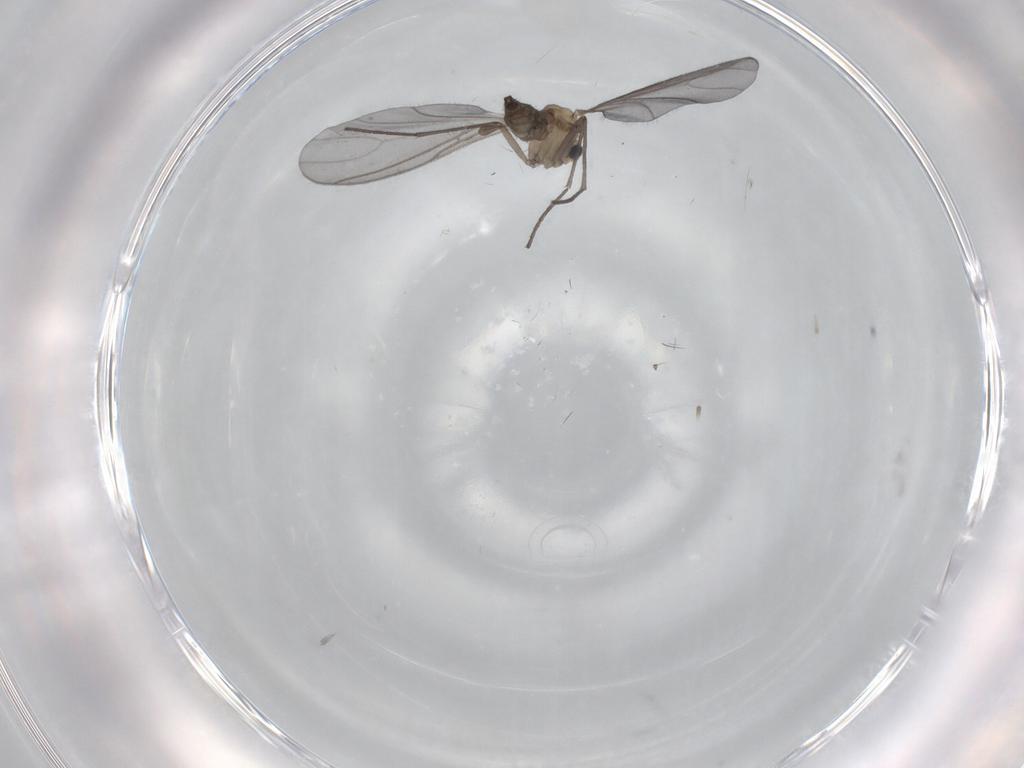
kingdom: Animalia
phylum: Arthropoda
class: Insecta
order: Diptera
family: Sciaridae
